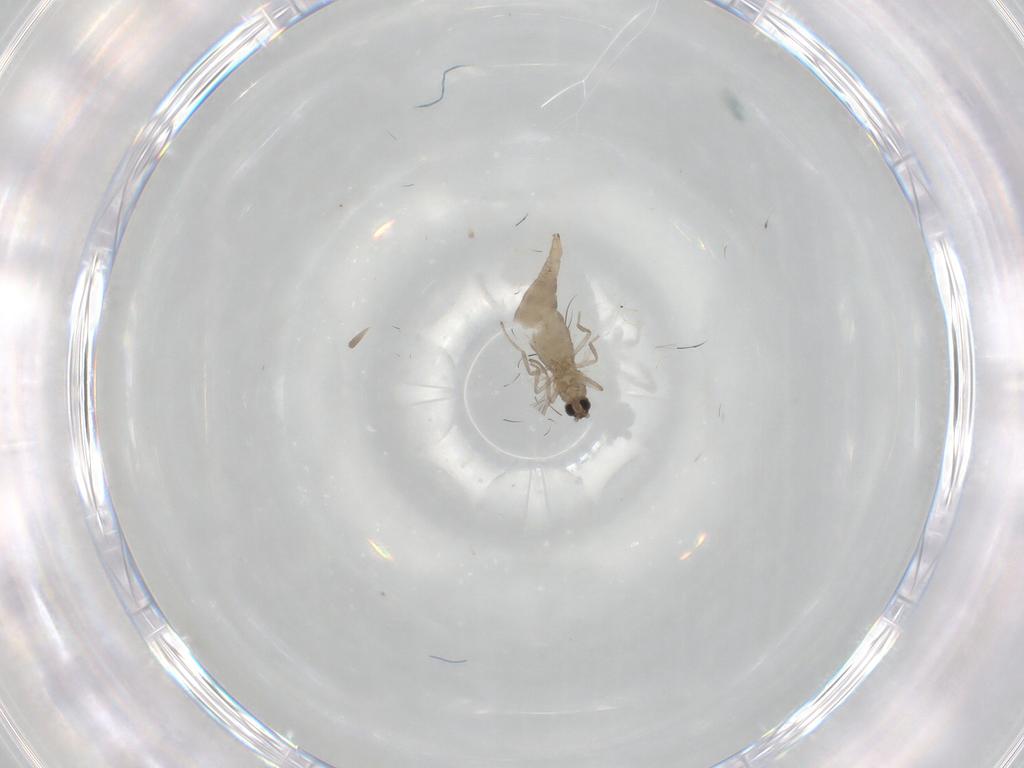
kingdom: Animalia
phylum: Arthropoda
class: Insecta
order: Diptera
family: Cecidomyiidae
